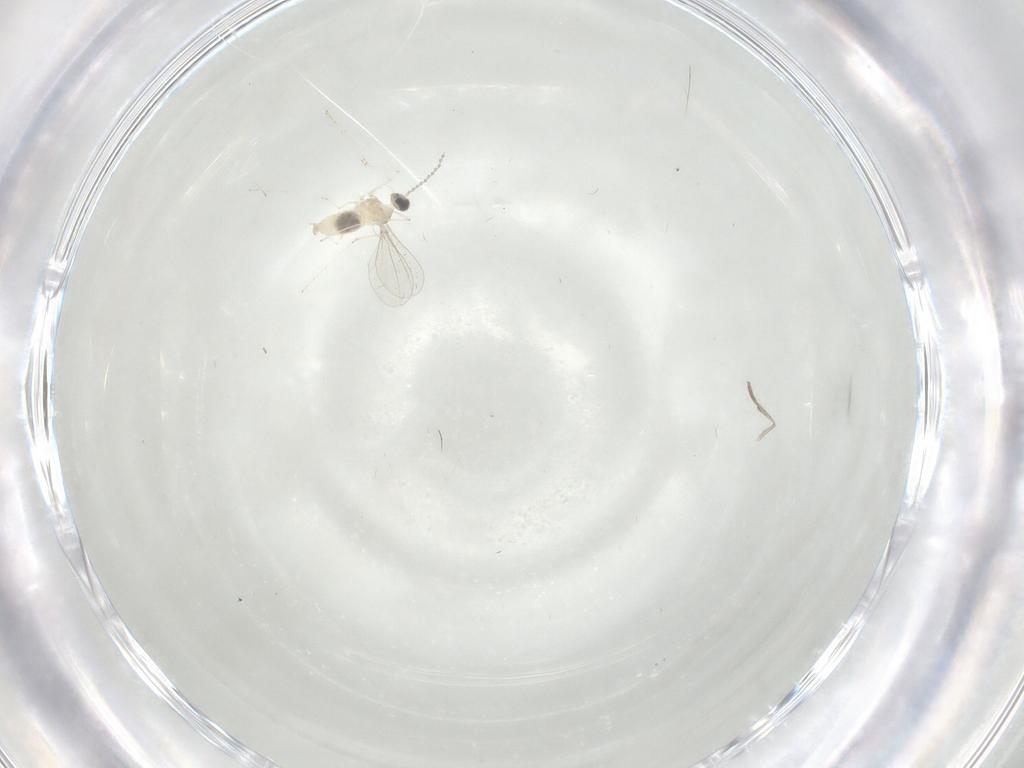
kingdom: Animalia
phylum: Arthropoda
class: Insecta
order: Diptera
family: Cecidomyiidae
